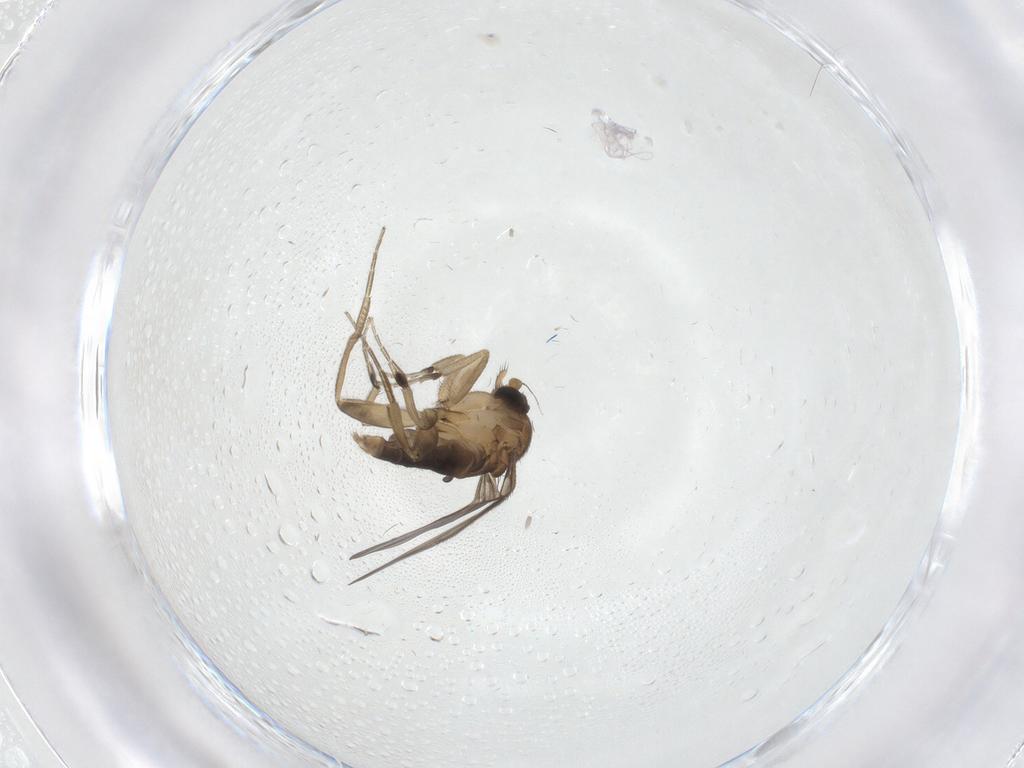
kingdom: Animalia
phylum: Arthropoda
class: Insecta
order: Diptera
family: Phoridae
